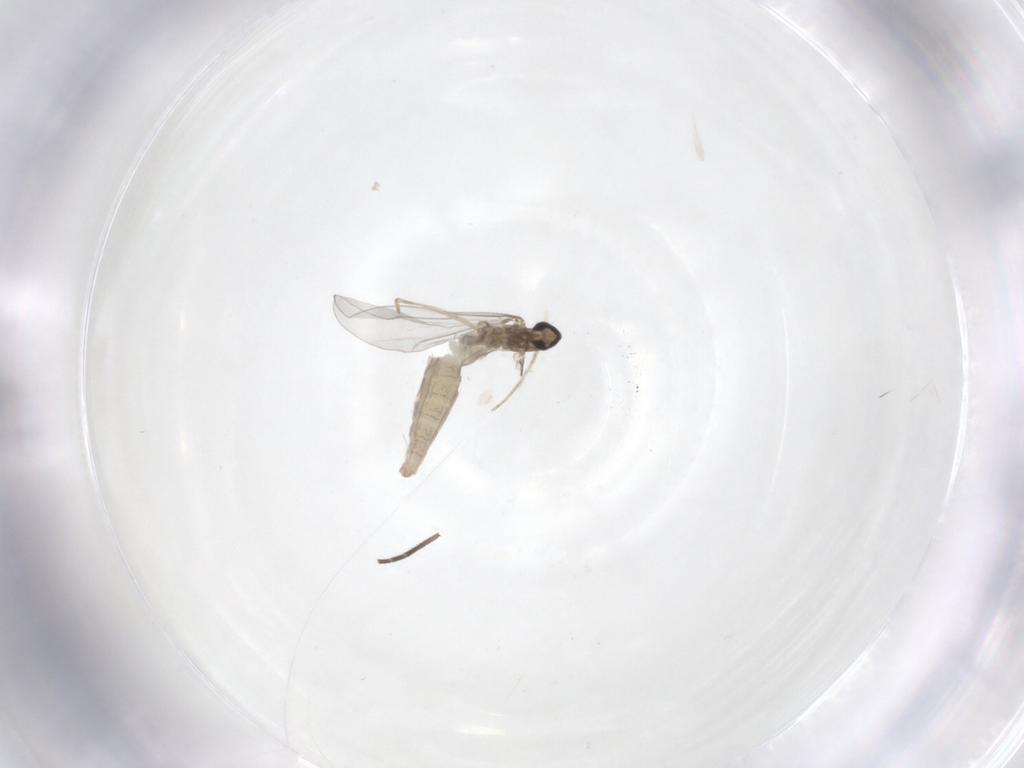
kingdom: Animalia
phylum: Arthropoda
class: Insecta
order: Diptera
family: Cecidomyiidae
